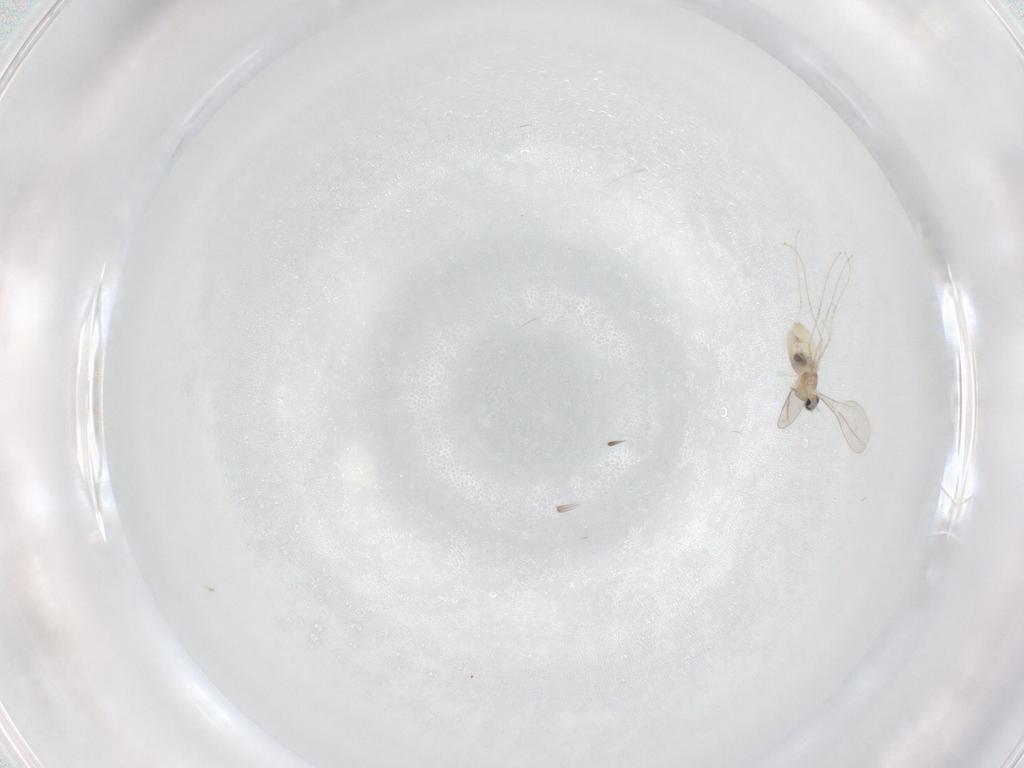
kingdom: Animalia
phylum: Arthropoda
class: Insecta
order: Diptera
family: Cecidomyiidae
